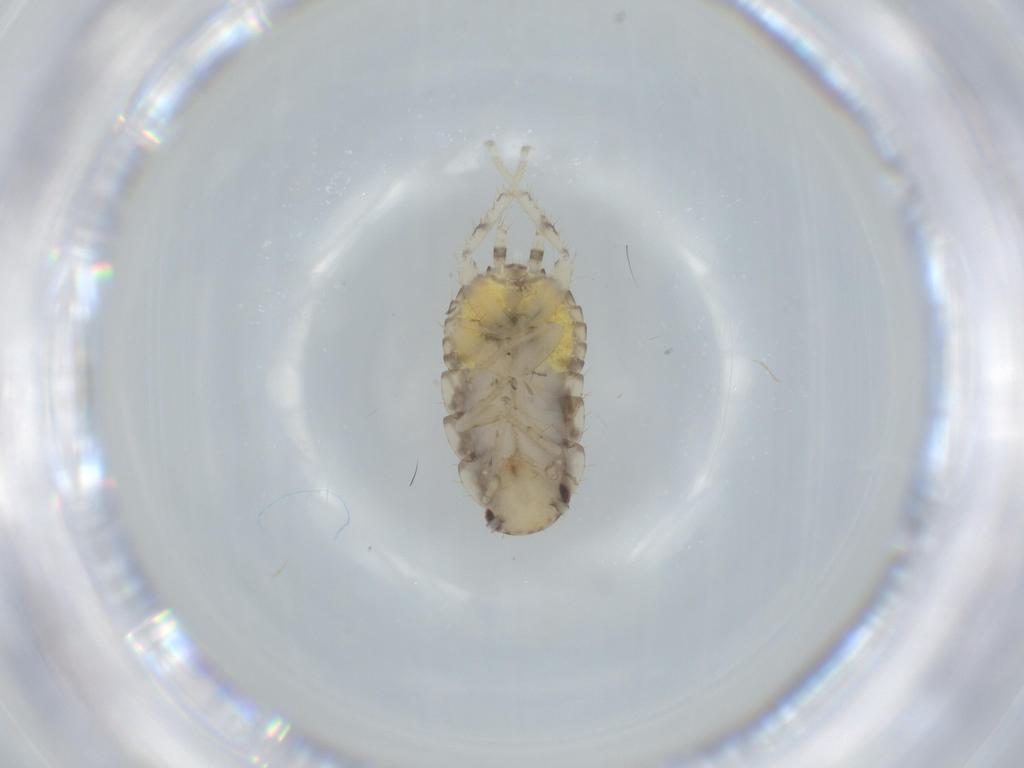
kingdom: Animalia
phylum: Arthropoda
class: Insecta
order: Blattodea
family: Ectobiidae
